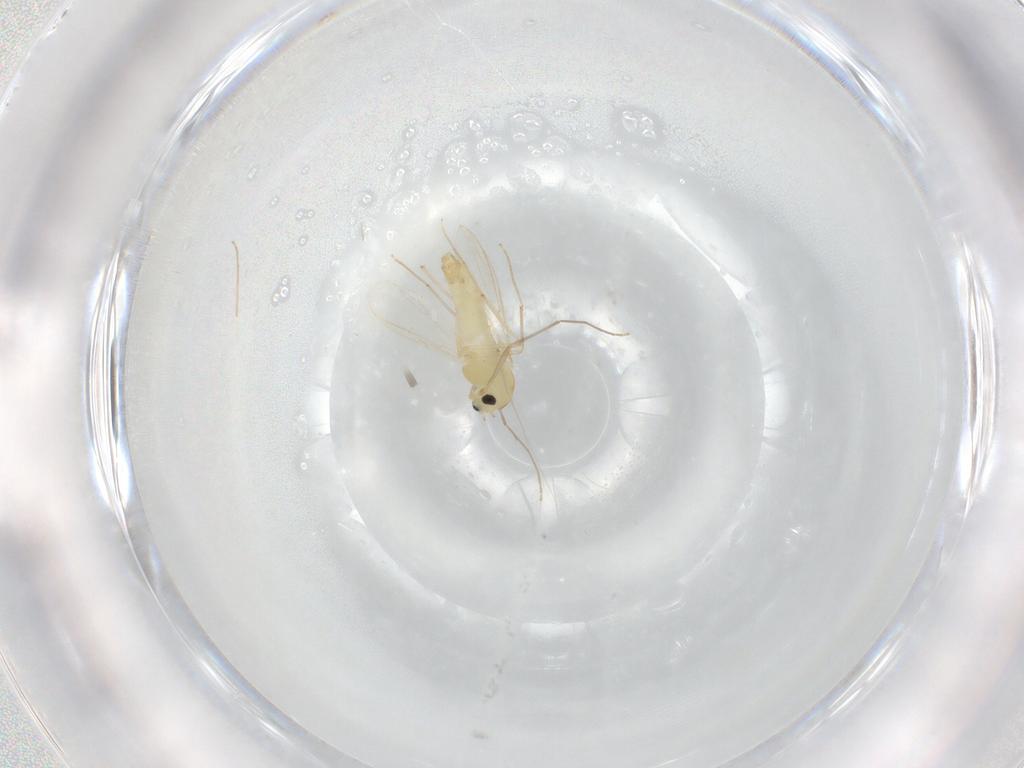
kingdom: Animalia
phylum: Arthropoda
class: Insecta
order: Diptera
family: Chironomidae
